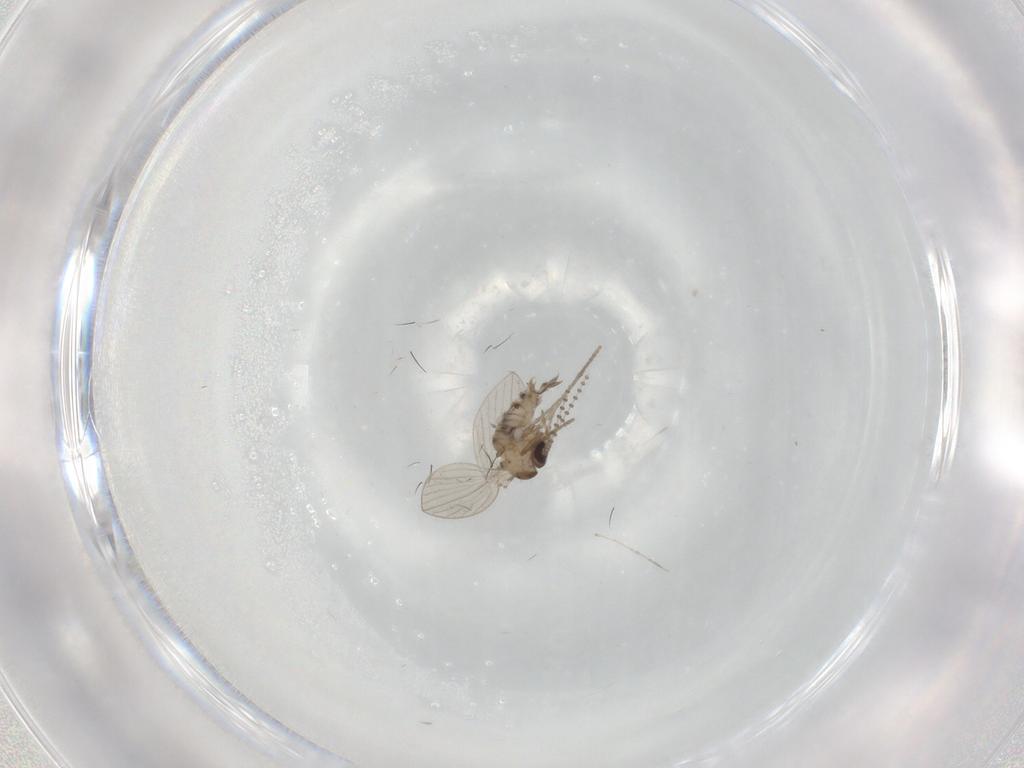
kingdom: Animalia
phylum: Arthropoda
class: Insecta
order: Diptera
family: Psychodidae
